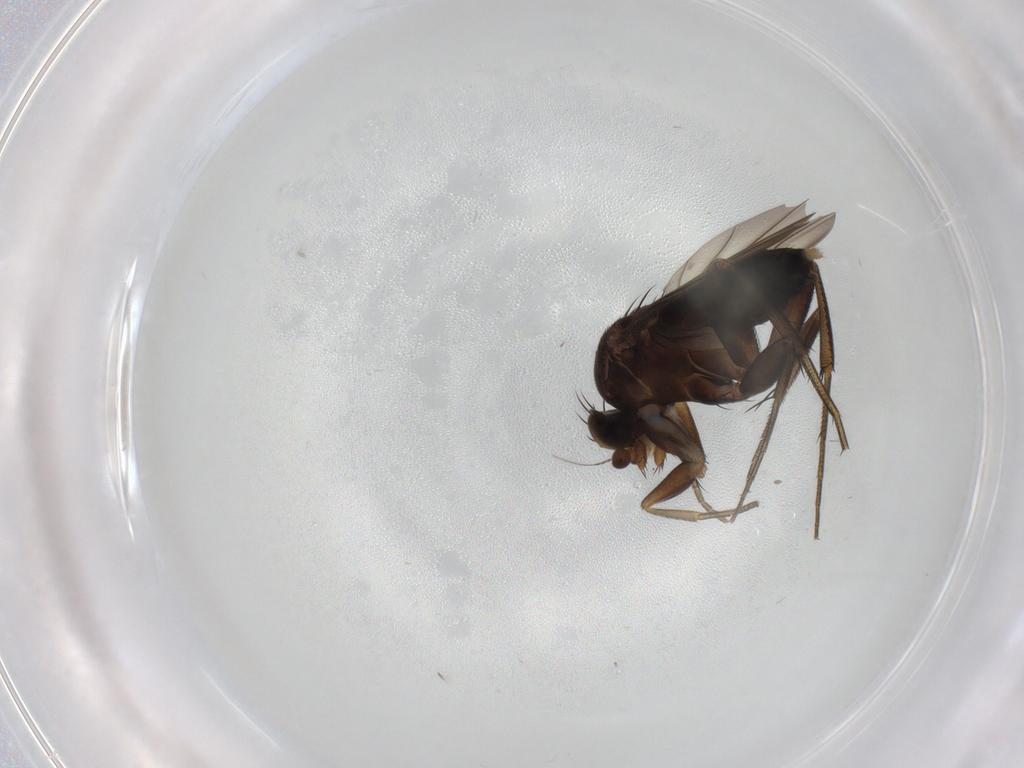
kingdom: Animalia
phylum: Arthropoda
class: Insecta
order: Diptera
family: Phoridae
